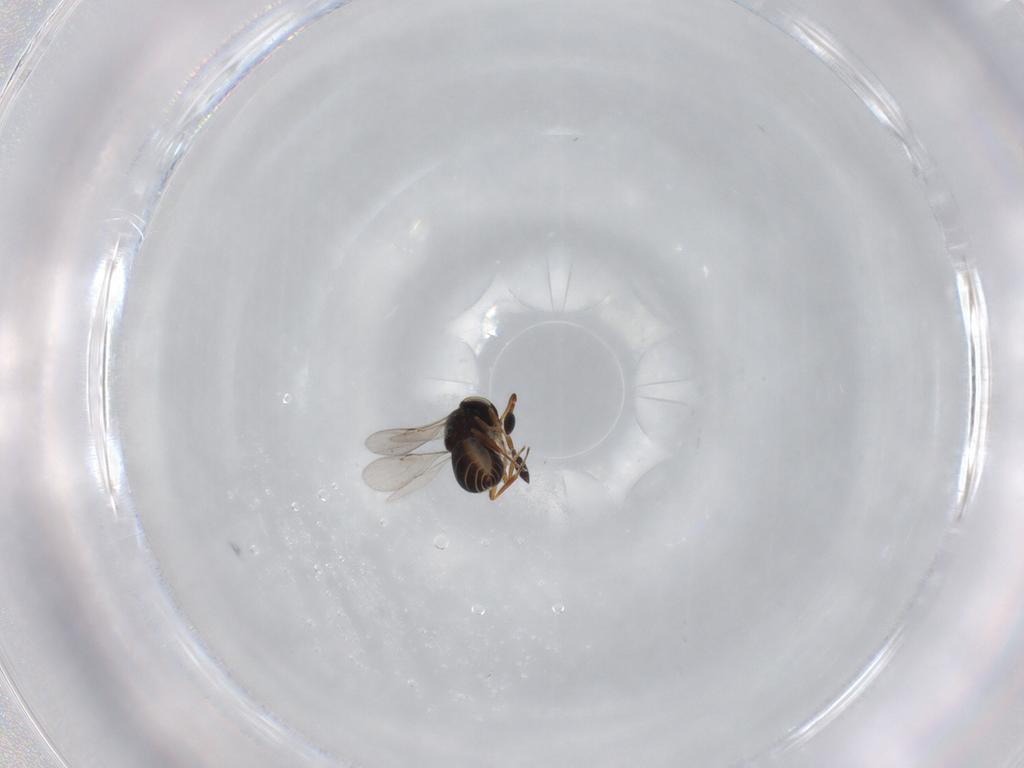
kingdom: Animalia
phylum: Arthropoda
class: Insecta
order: Hymenoptera
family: Scelionidae
